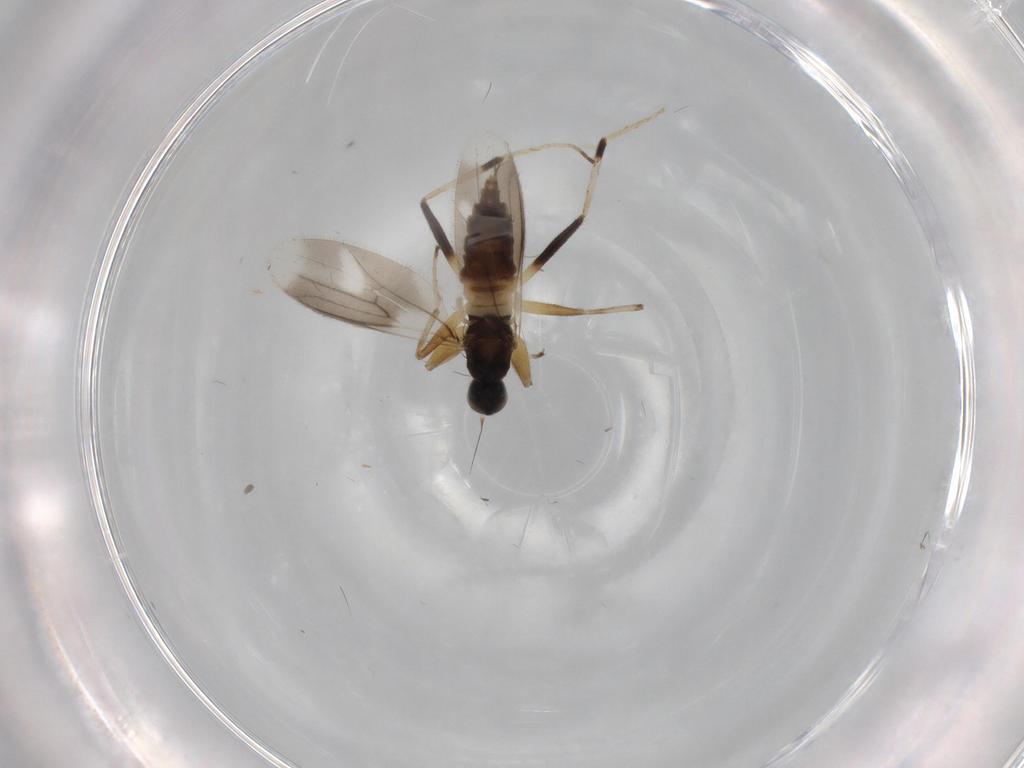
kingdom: Animalia
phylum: Arthropoda
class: Insecta
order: Diptera
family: Hybotidae
